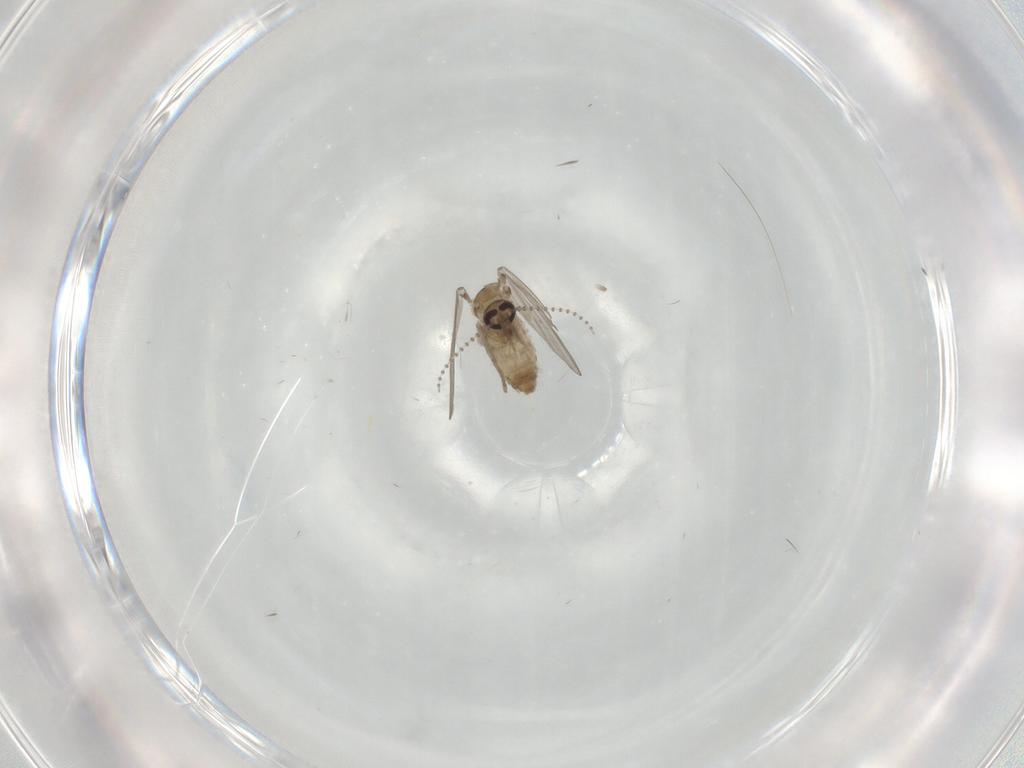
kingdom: Animalia
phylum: Arthropoda
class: Insecta
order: Diptera
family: Psychodidae
